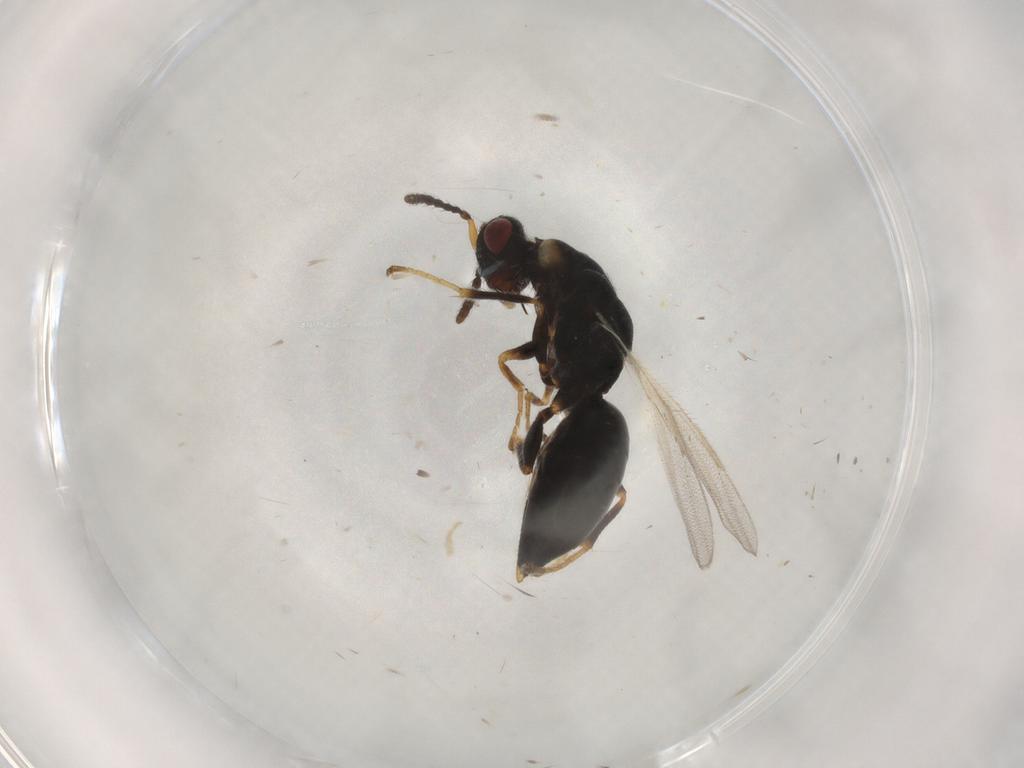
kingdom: Animalia
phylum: Arthropoda
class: Insecta
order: Hymenoptera
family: Eurytomidae
